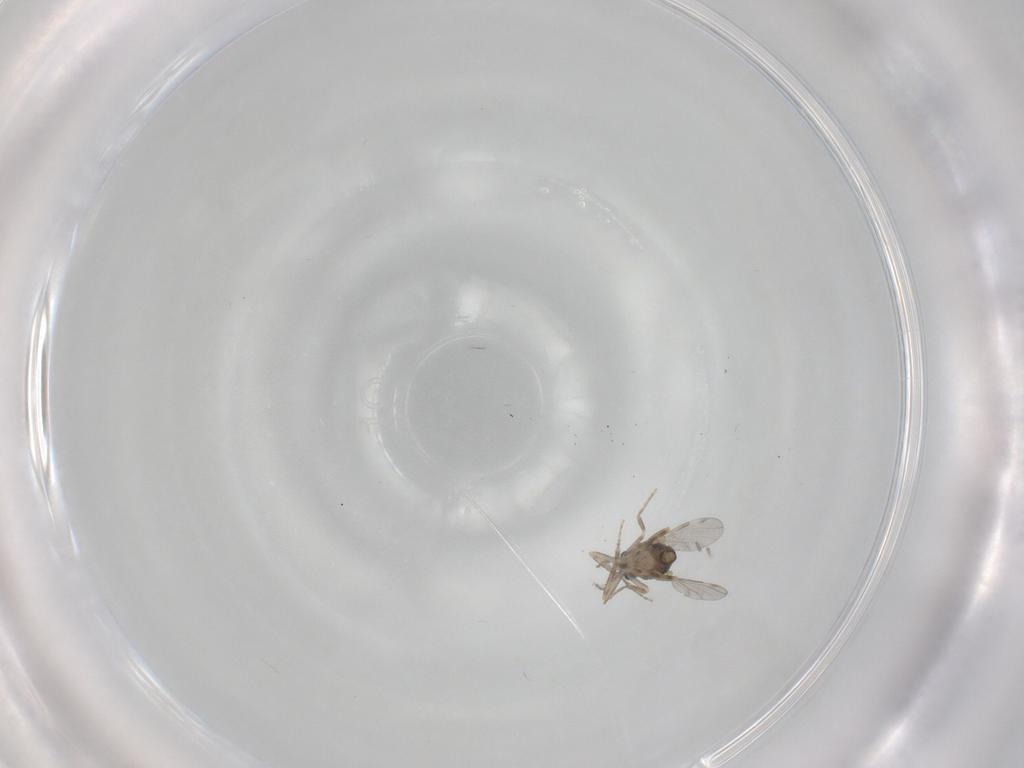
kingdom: Animalia
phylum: Arthropoda
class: Insecta
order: Diptera
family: Ceratopogonidae
